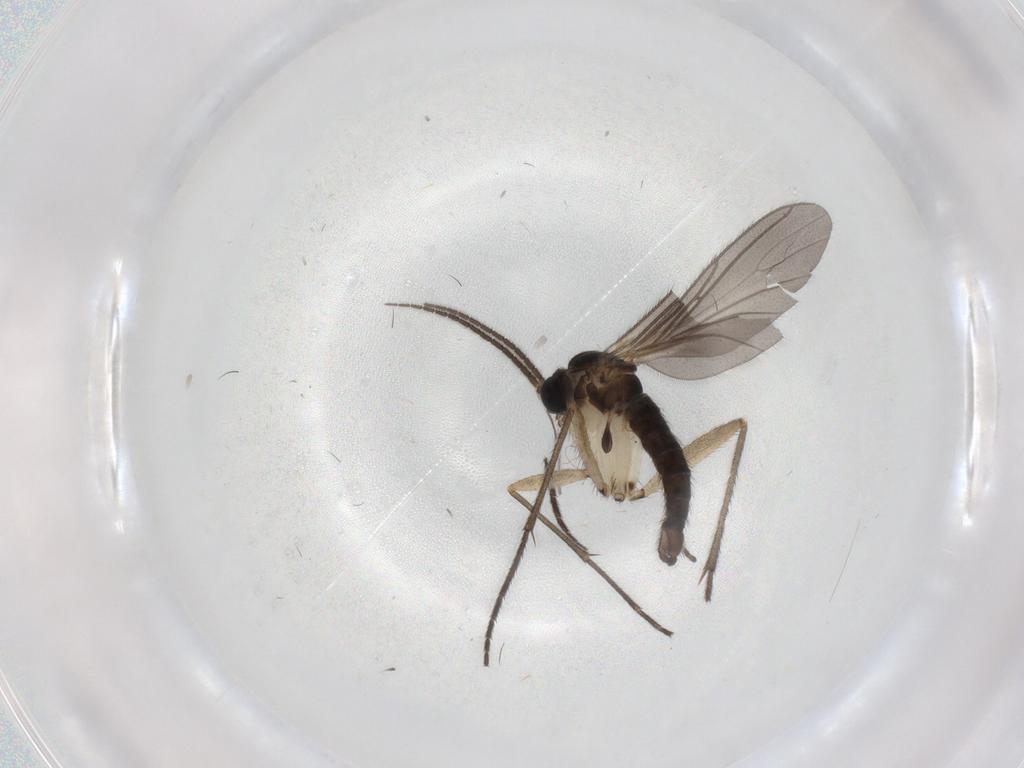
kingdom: Animalia
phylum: Arthropoda
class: Insecta
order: Diptera
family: Sciaridae
